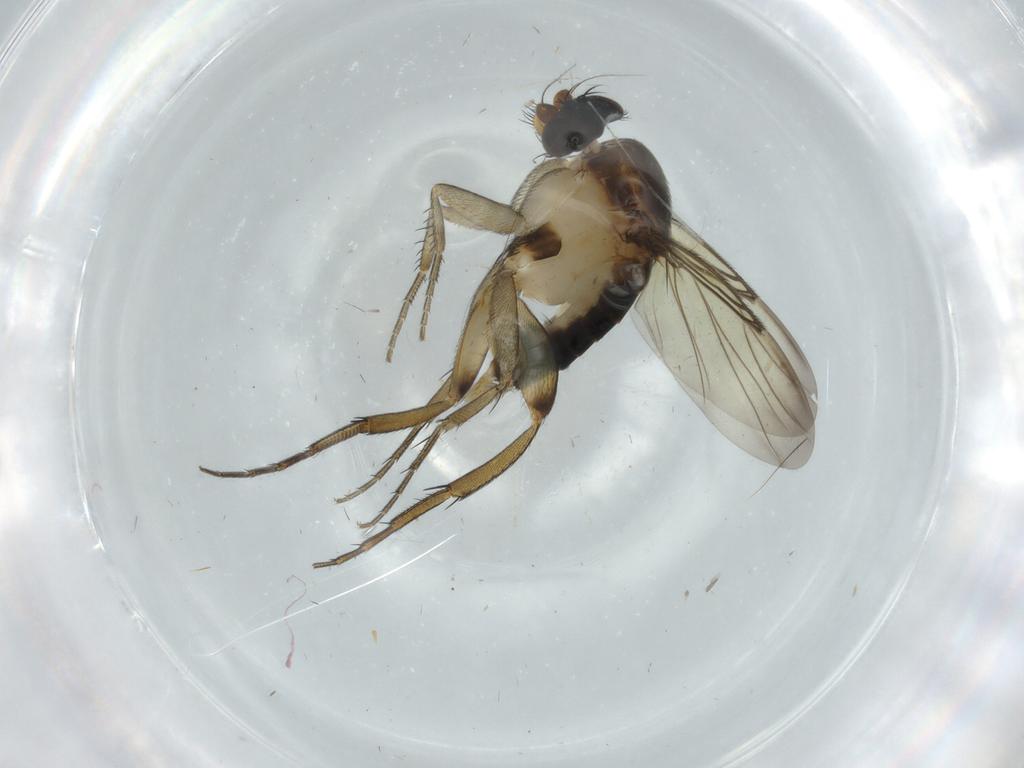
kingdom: Animalia
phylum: Arthropoda
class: Insecta
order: Diptera
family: Phoridae
